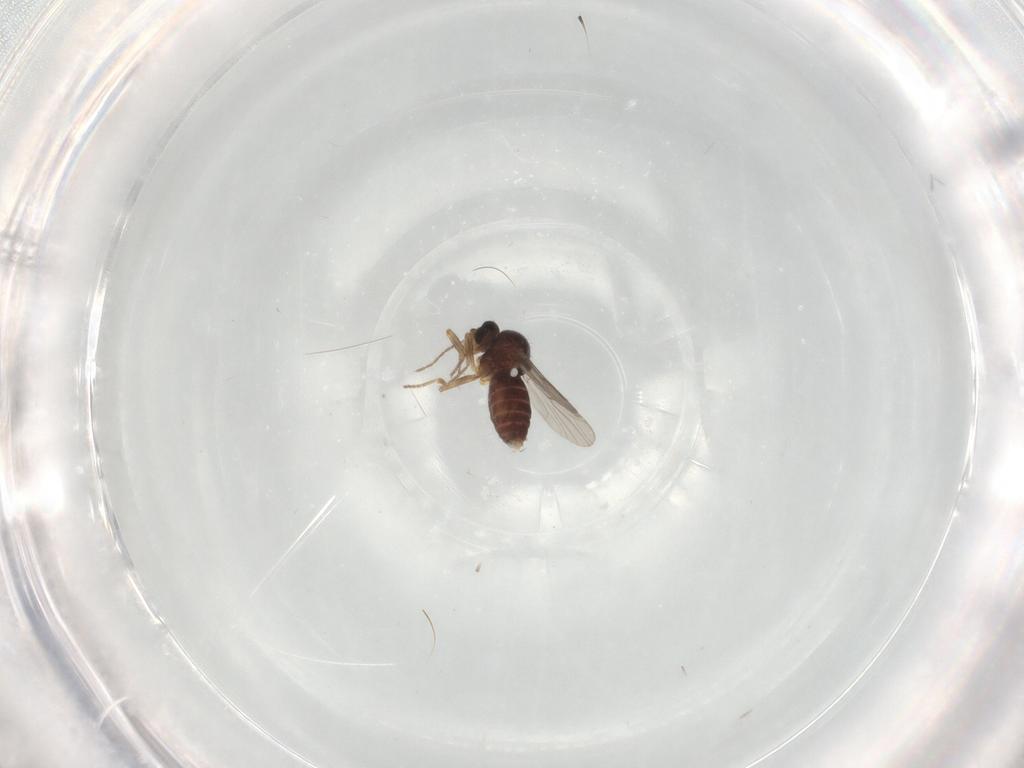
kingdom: Animalia
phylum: Arthropoda
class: Insecta
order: Diptera
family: Ceratopogonidae
